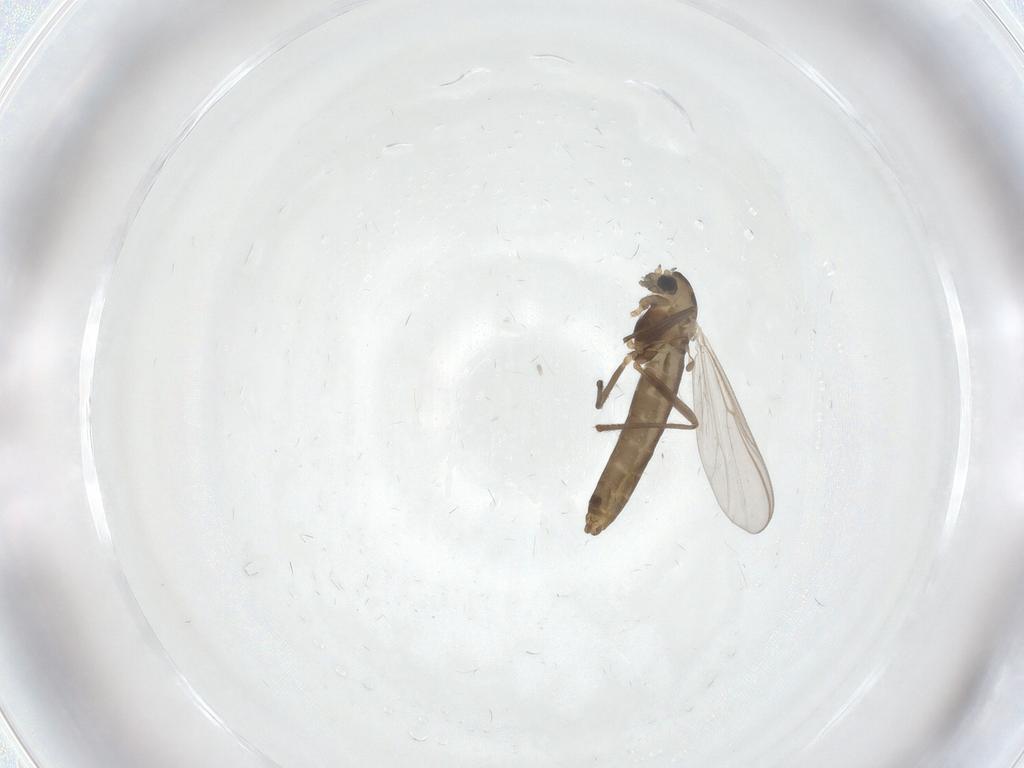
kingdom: Animalia
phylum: Arthropoda
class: Insecta
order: Diptera
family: Chironomidae
